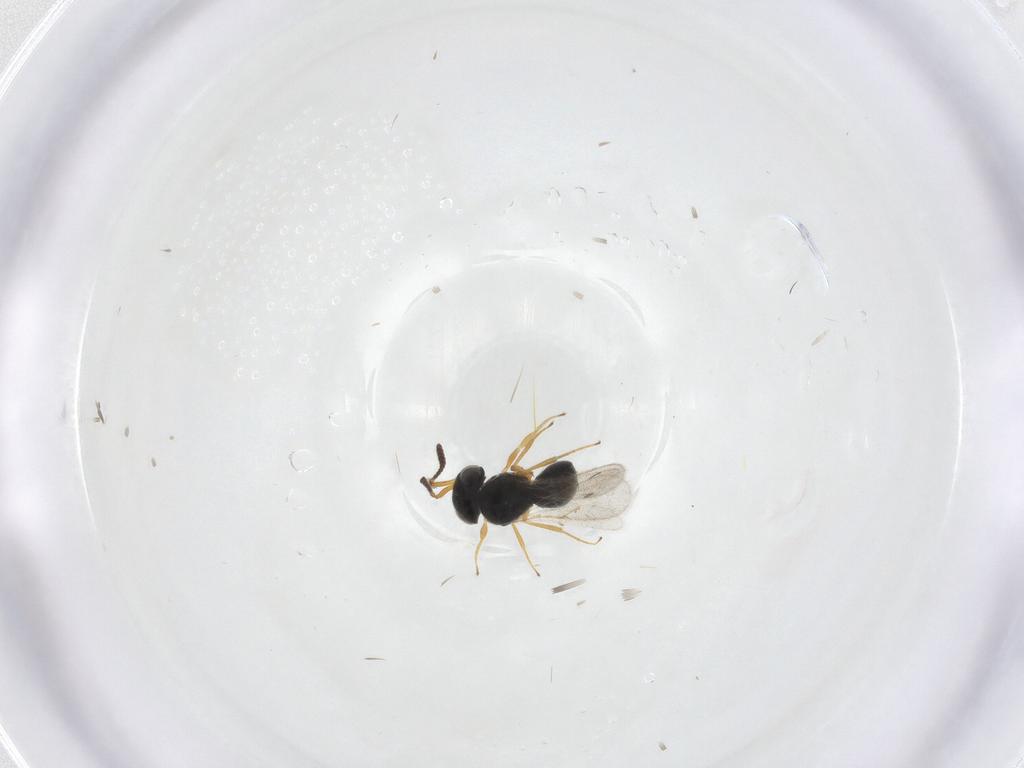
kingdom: Animalia
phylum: Arthropoda
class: Insecta
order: Hymenoptera
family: Scelionidae
